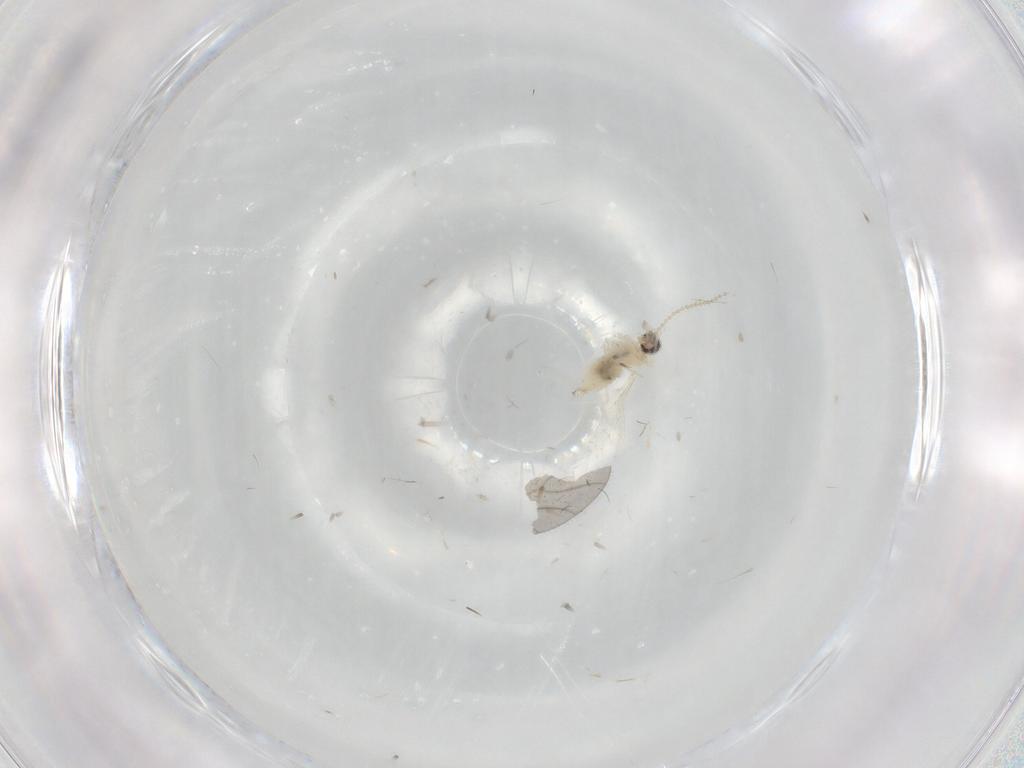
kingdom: Animalia
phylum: Arthropoda
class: Insecta
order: Diptera
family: Cecidomyiidae
